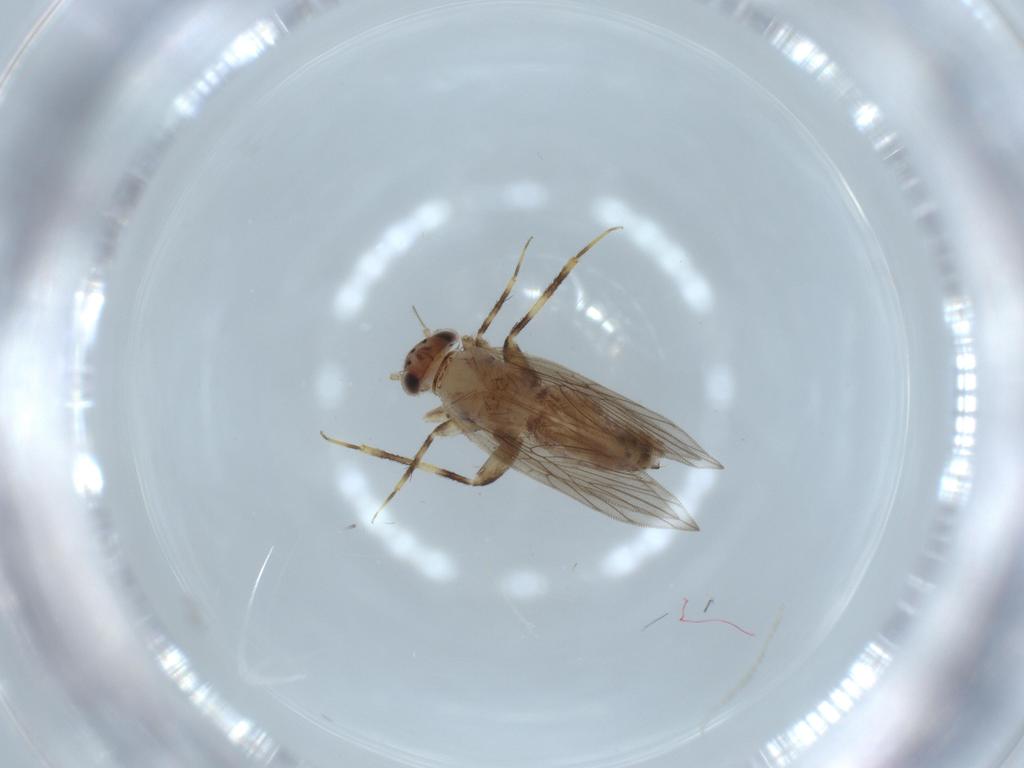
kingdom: Animalia
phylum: Arthropoda
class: Insecta
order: Psocodea
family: Lepidopsocidae
